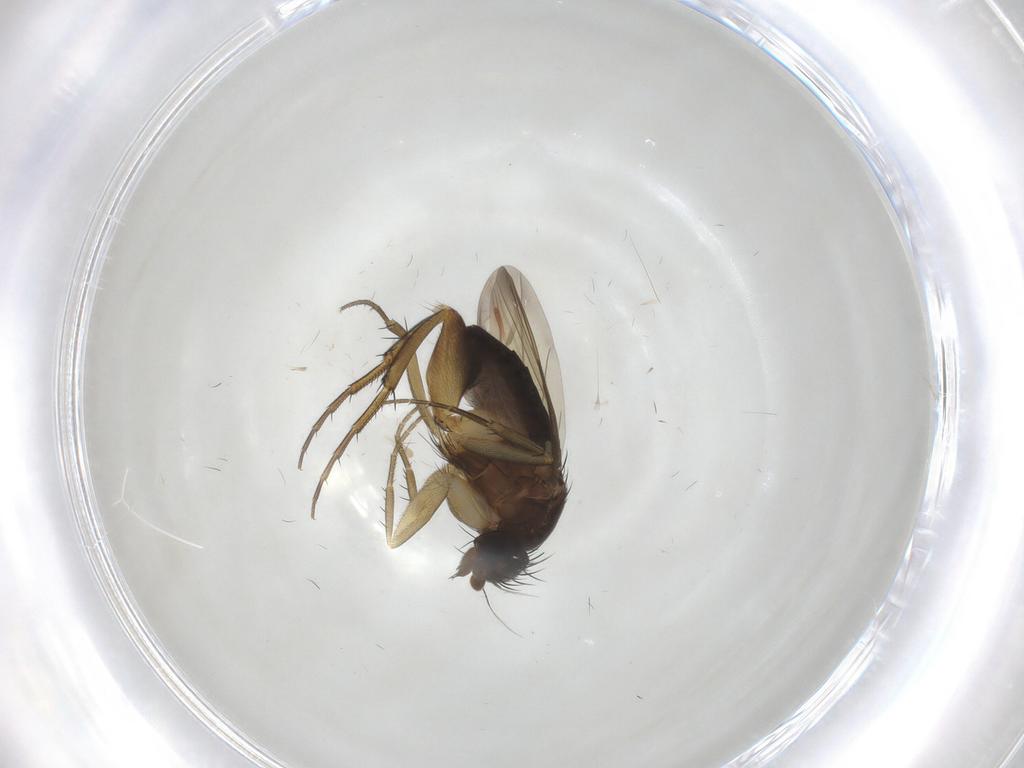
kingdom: Animalia
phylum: Arthropoda
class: Insecta
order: Diptera
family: Phoridae
